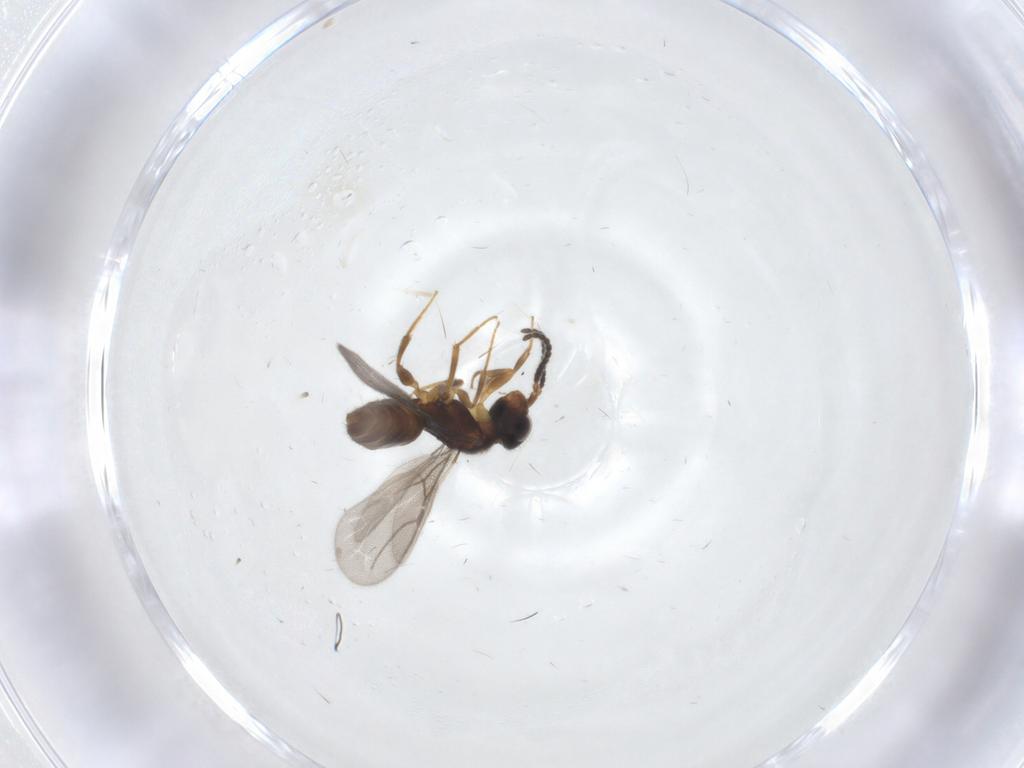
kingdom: Animalia
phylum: Arthropoda
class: Insecta
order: Hymenoptera
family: Bethylidae
